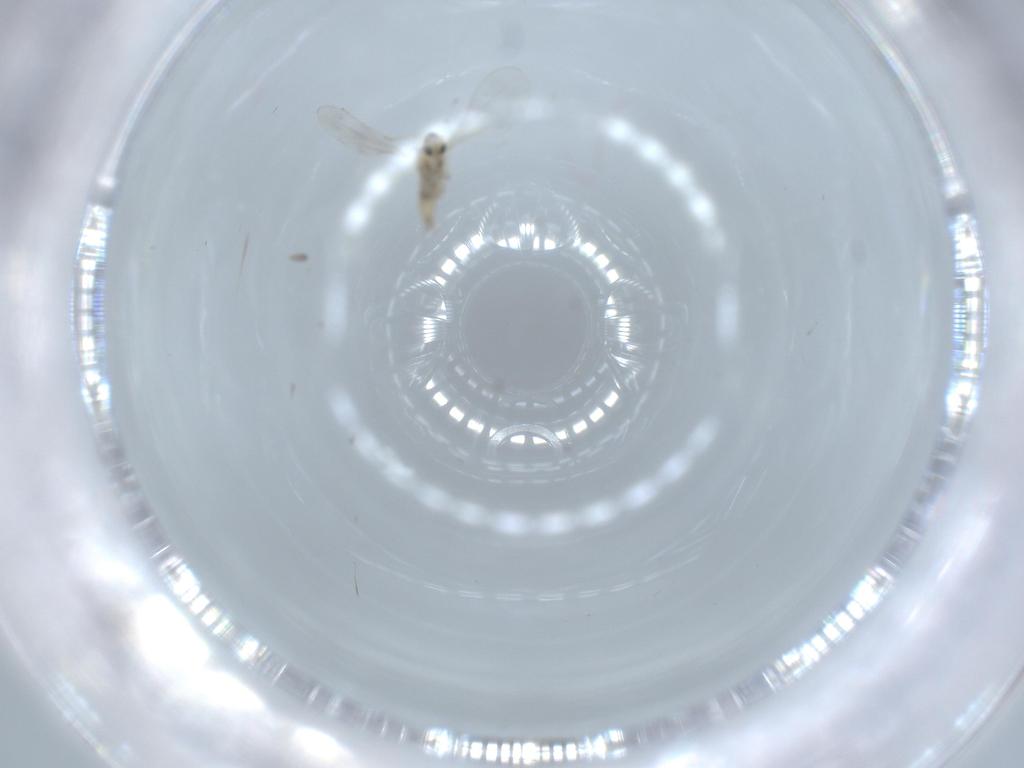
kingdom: Animalia
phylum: Arthropoda
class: Insecta
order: Diptera
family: Cecidomyiidae
